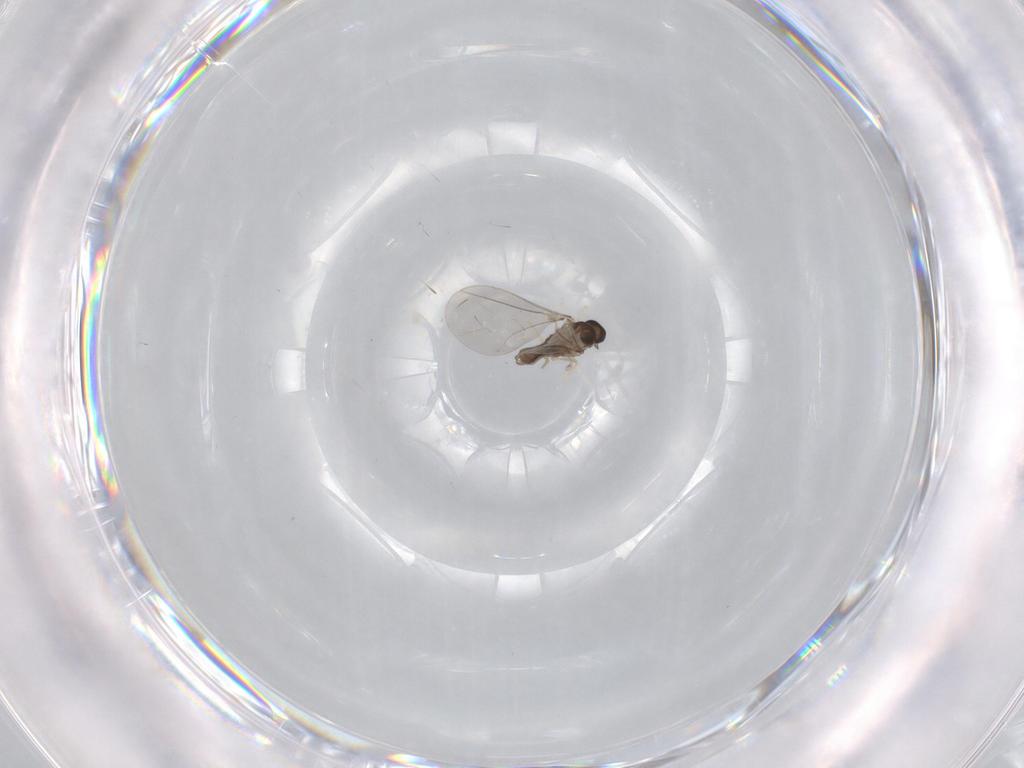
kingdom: Animalia
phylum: Arthropoda
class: Insecta
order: Diptera
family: Cecidomyiidae
